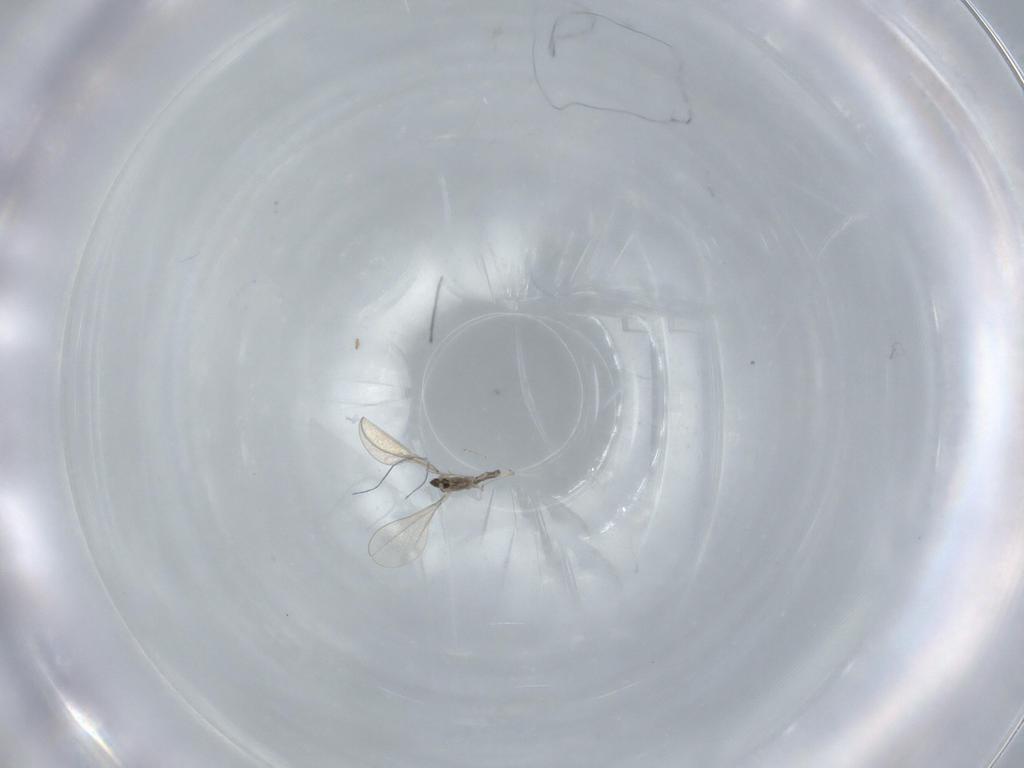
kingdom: Animalia
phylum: Arthropoda
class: Insecta
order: Diptera
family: Cecidomyiidae
